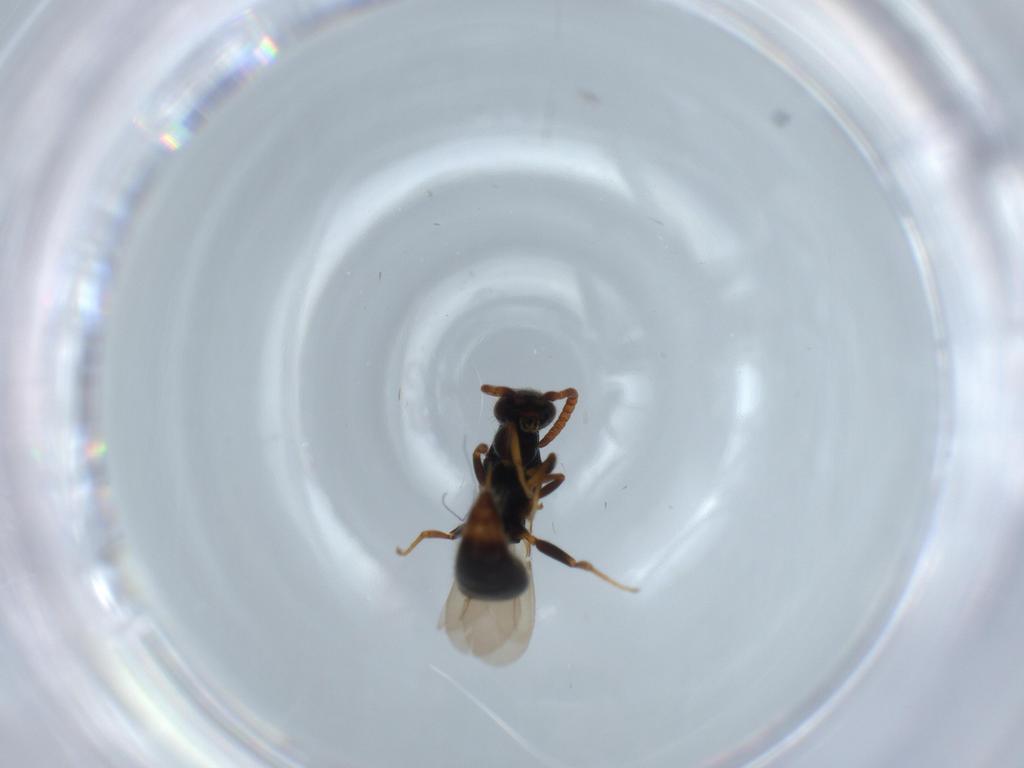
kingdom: Animalia
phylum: Arthropoda
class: Insecta
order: Hymenoptera
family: Bethylidae
